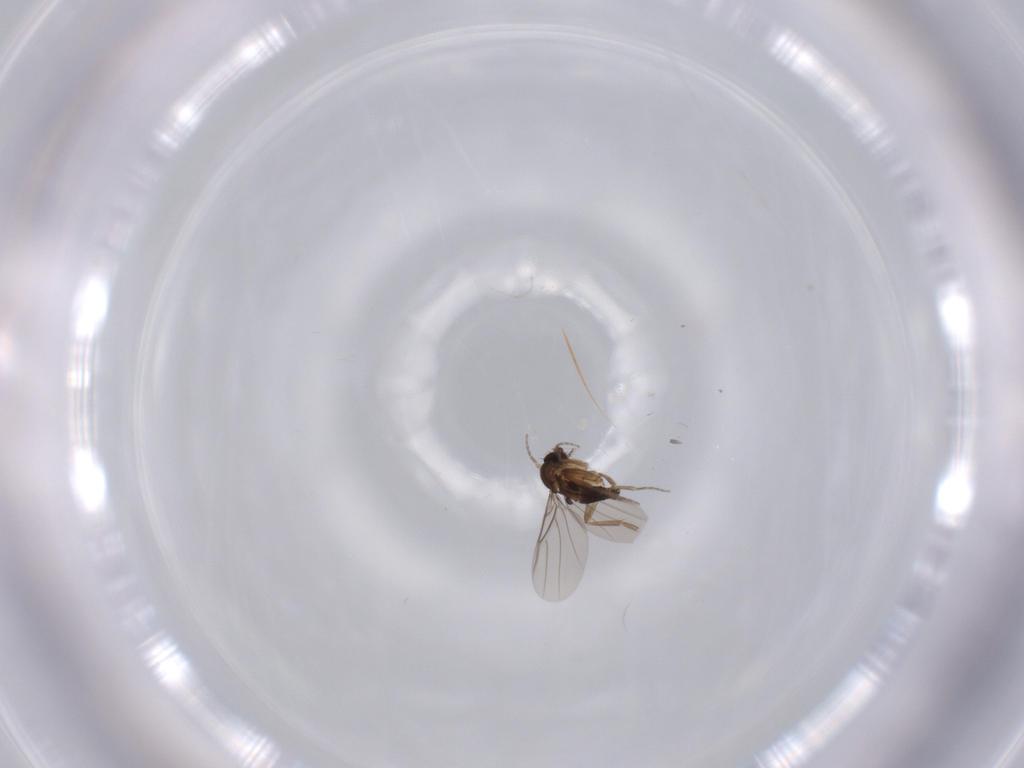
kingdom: Animalia
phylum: Arthropoda
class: Insecta
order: Diptera
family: Phoridae
